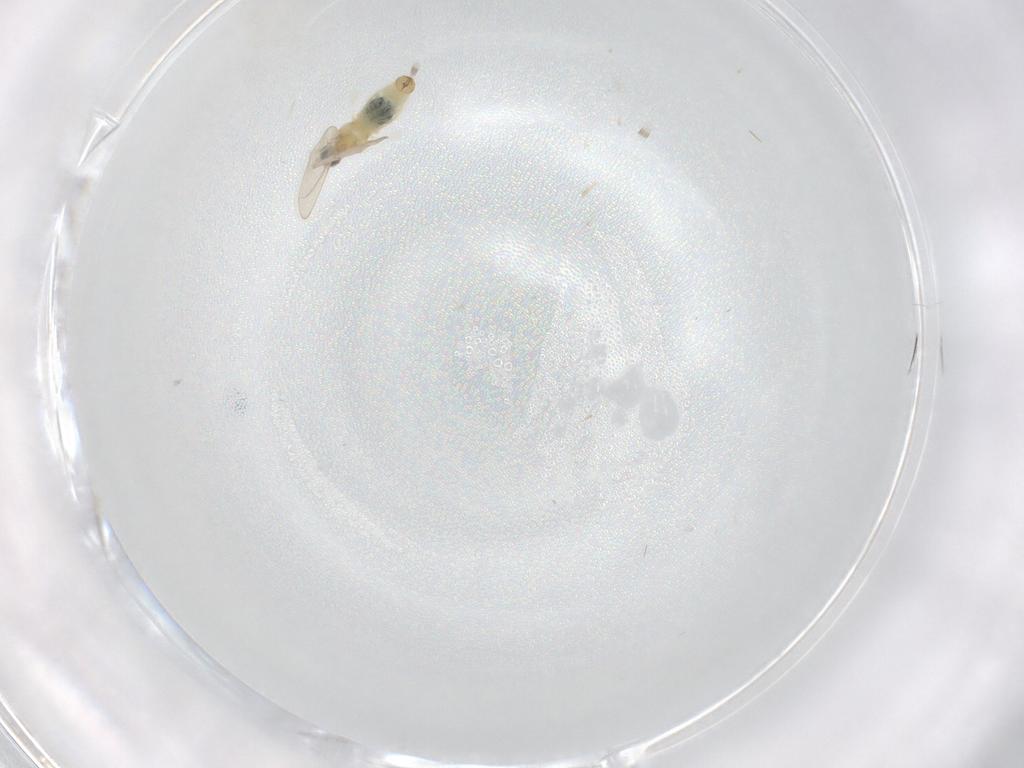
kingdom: Animalia
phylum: Arthropoda
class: Insecta
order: Diptera
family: Cecidomyiidae
